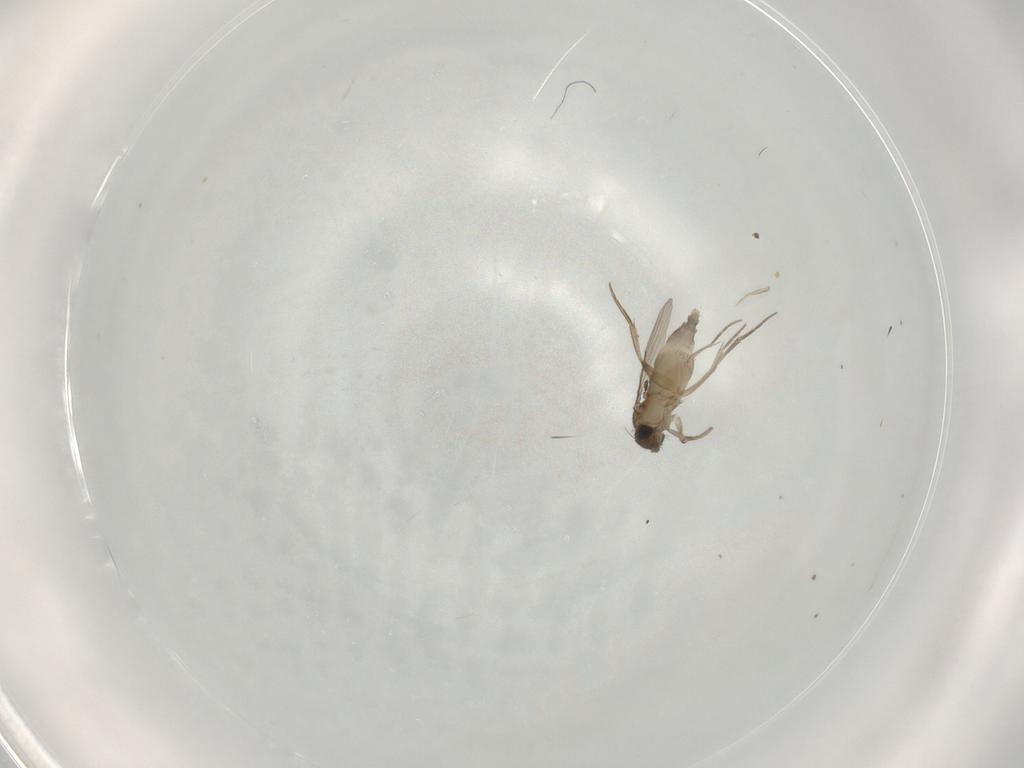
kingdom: Animalia
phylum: Arthropoda
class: Insecta
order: Diptera
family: Phoridae
